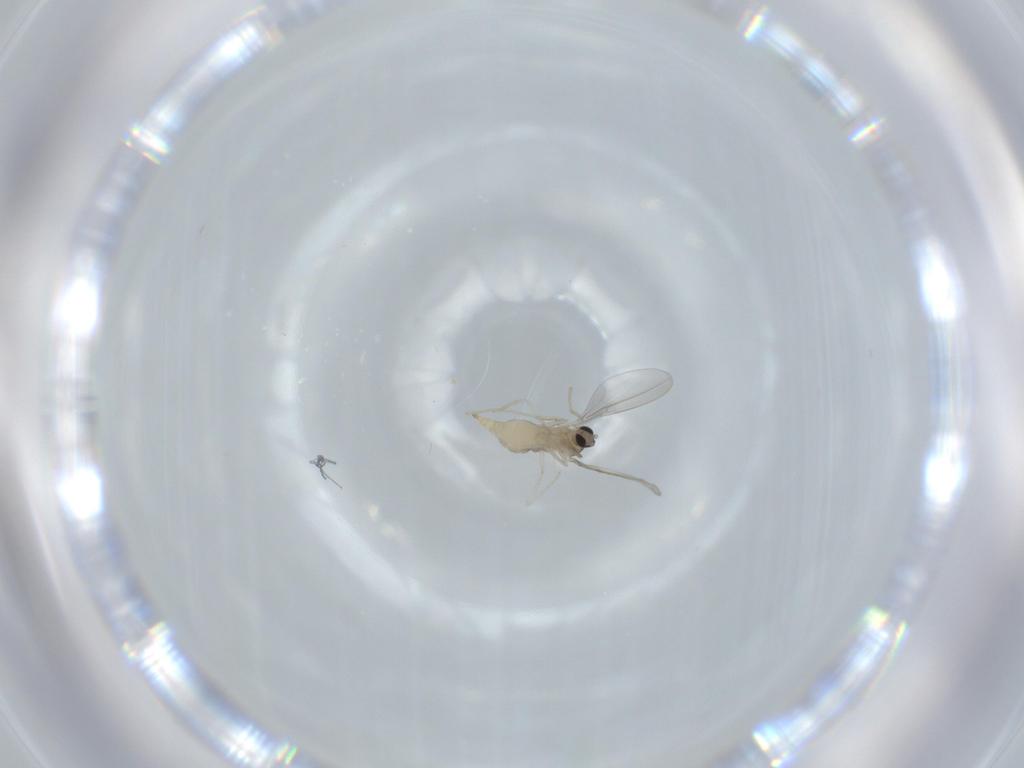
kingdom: Animalia
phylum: Arthropoda
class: Insecta
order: Diptera
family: Cecidomyiidae
